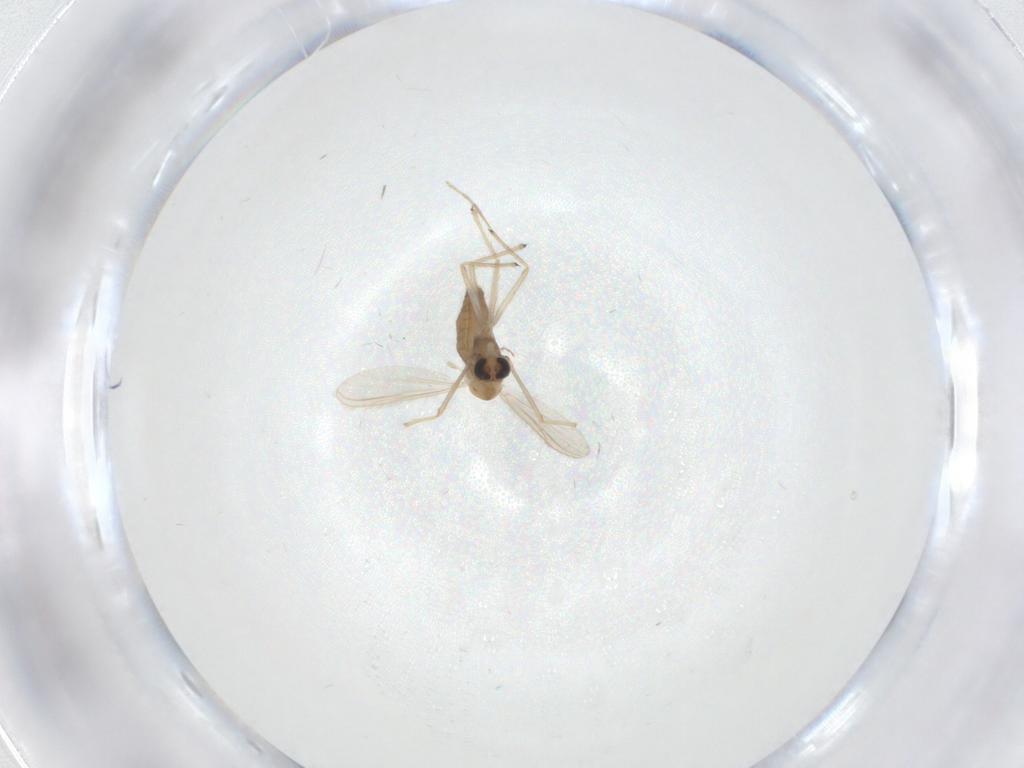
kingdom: Animalia
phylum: Arthropoda
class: Insecta
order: Diptera
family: Chironomidae
